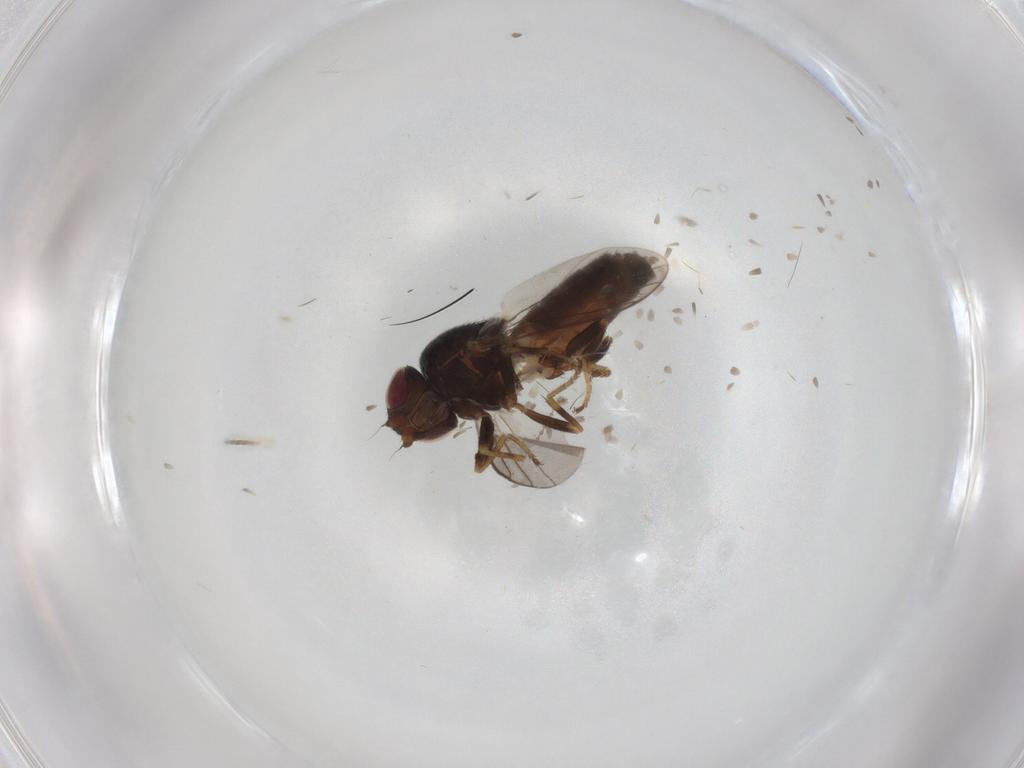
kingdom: Animalia
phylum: Arthropoda
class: Insecta
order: Diptera
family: Chloropidae
